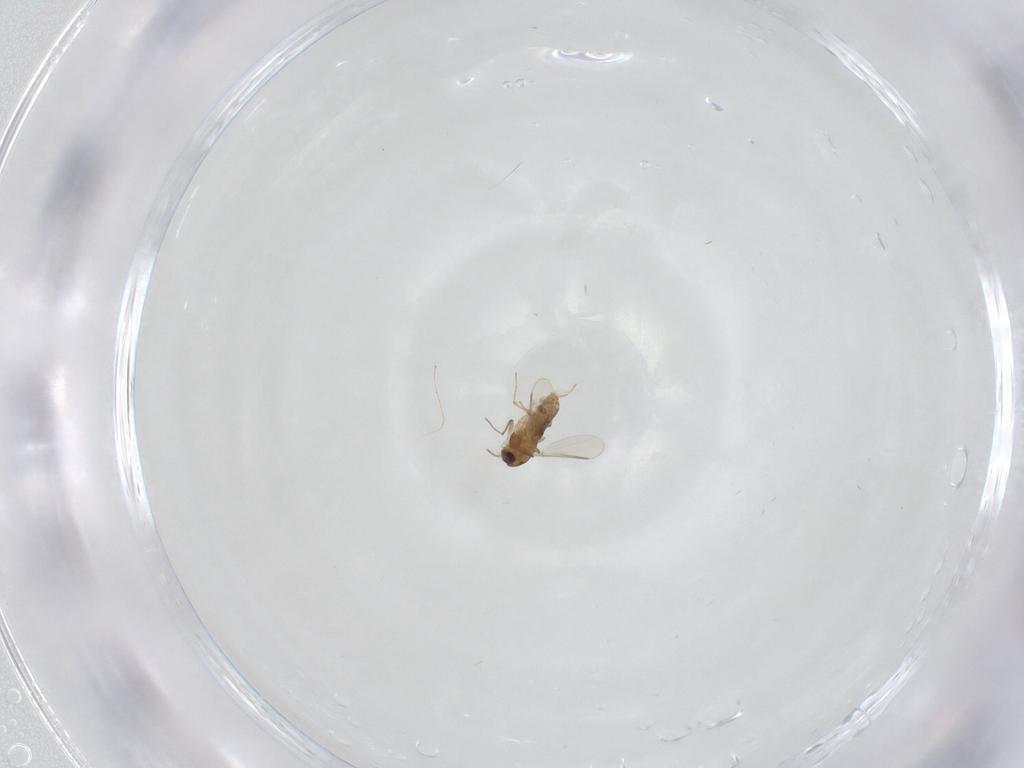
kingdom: Animalia
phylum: Arthropoda
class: Insecta
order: Diptera
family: Chironomidae
